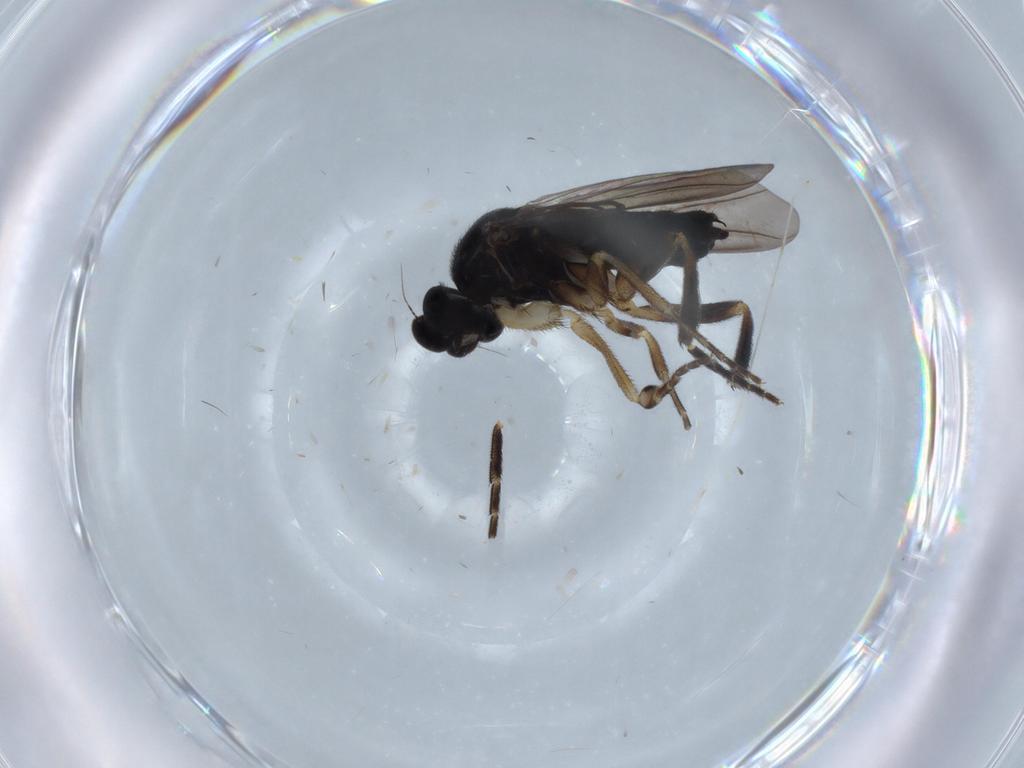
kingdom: Animalia
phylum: Arthropoda
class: Insecta
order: Diptera
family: Phoridae
